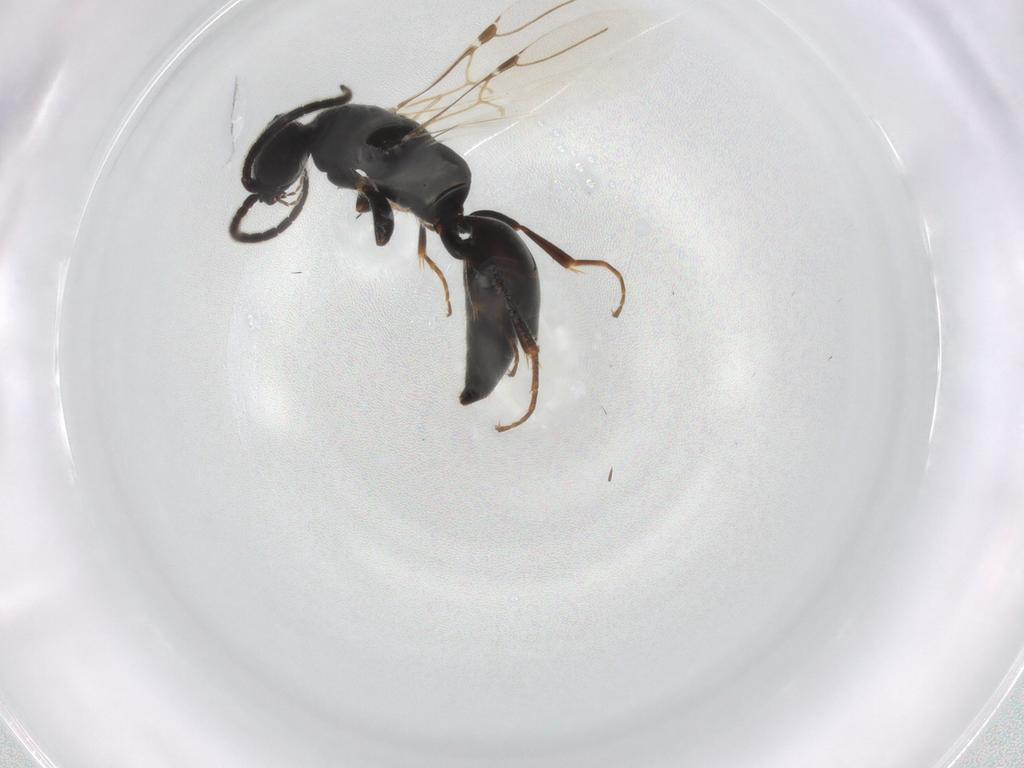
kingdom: Animalia
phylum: Arthropoda
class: Insecta
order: Hymenoptera
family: Bethylidae
